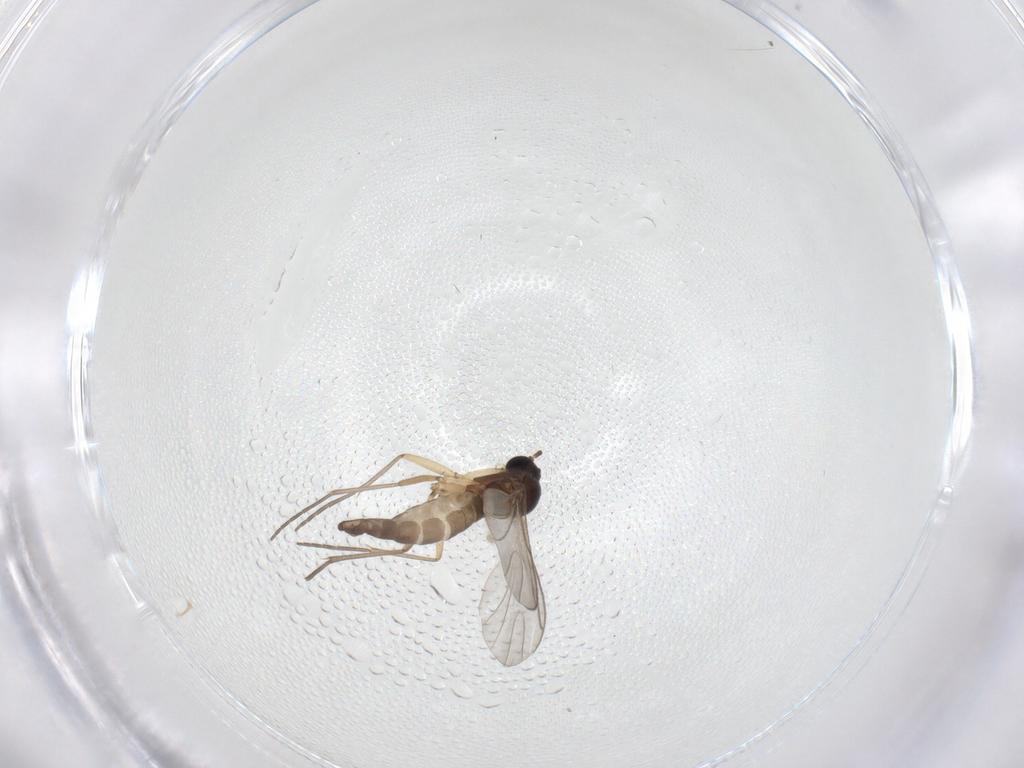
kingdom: Animalia
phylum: Arthropoda
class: Insecta
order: Diptera
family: Sciaridae
